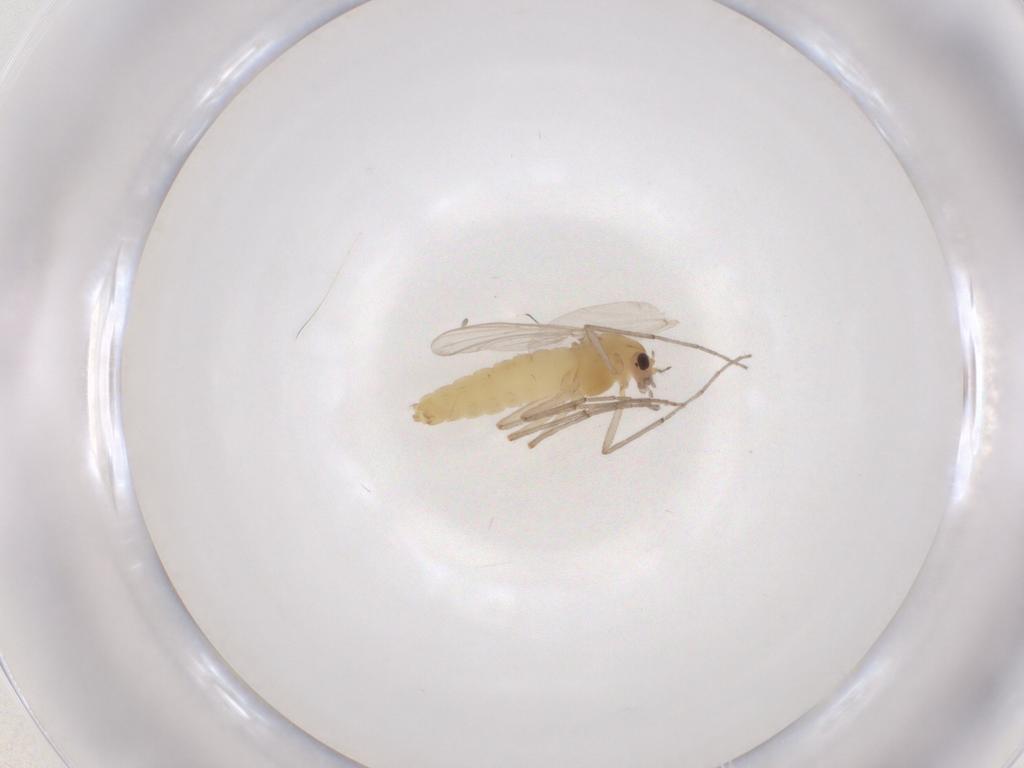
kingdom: Animalia
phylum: Arthropoda
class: Insecta
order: Diptera
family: Chironomidae
